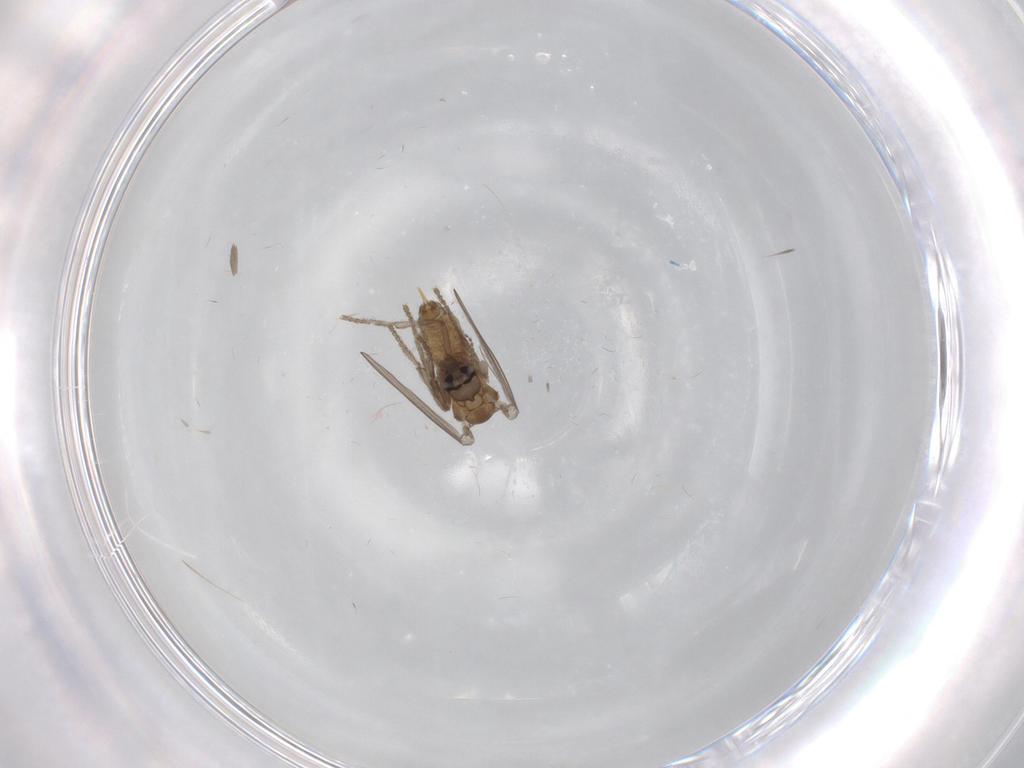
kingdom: Animalia
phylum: Arthropoda
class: Insecta
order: Diptera
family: Psychodidae
